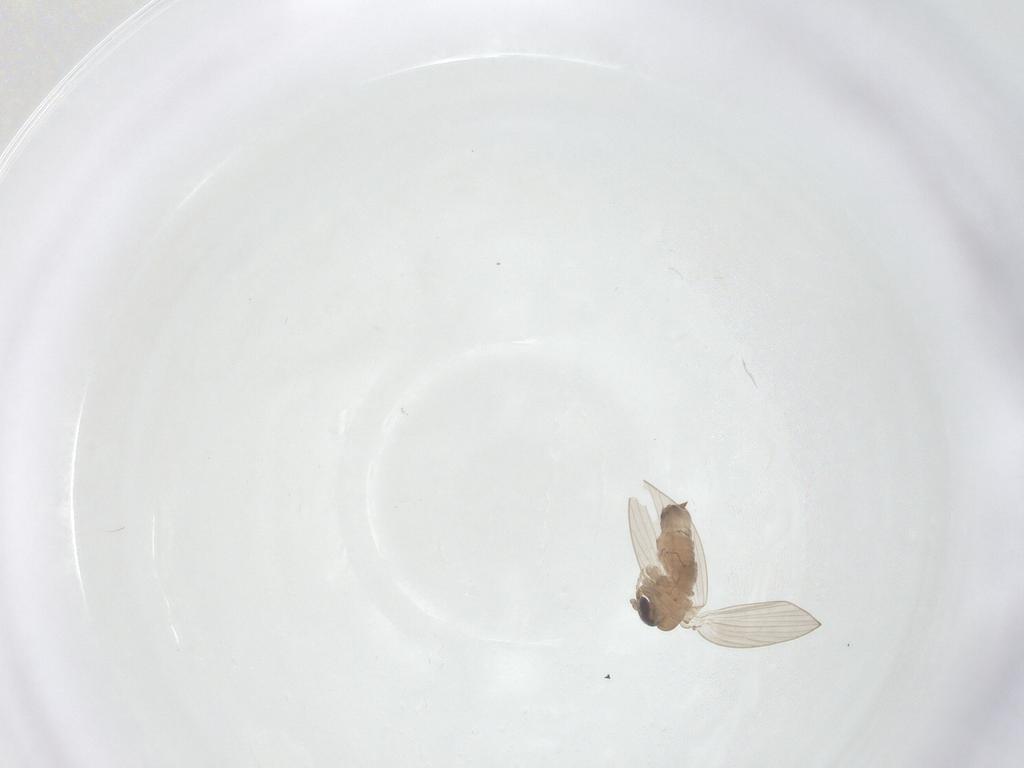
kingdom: Animalia
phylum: Arthropoda
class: Insecta
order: Diptera
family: Psychodidae
